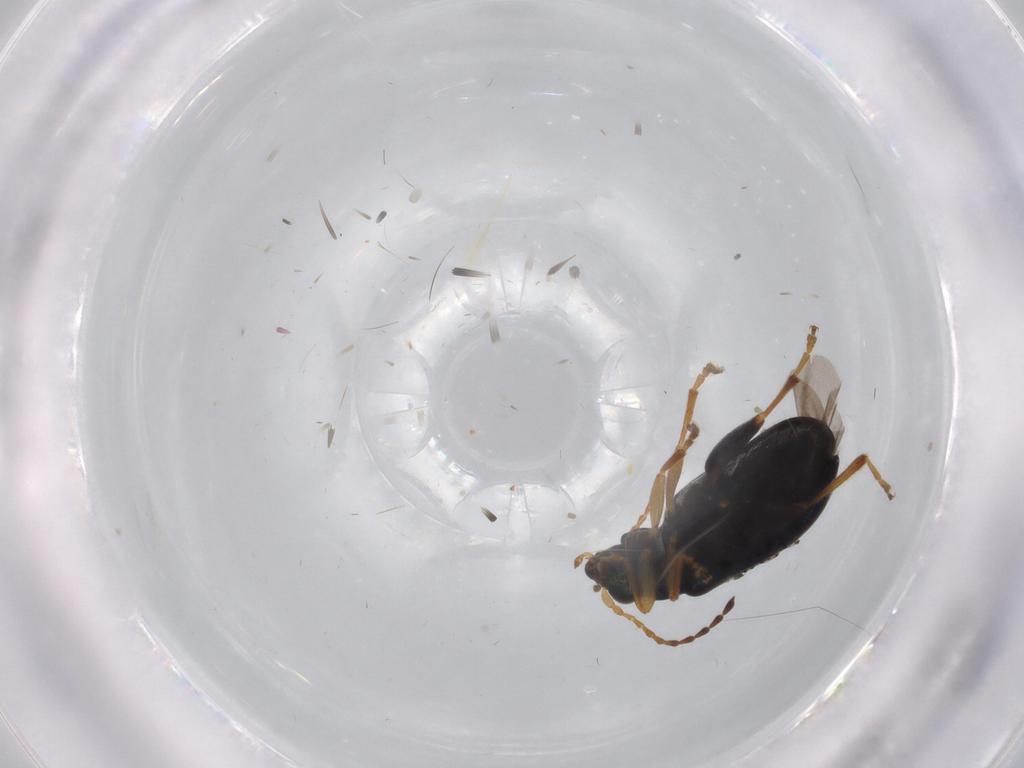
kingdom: Animalia
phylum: Arthropoda
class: Insecta
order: Coleoptera
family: Chrysomelidae
